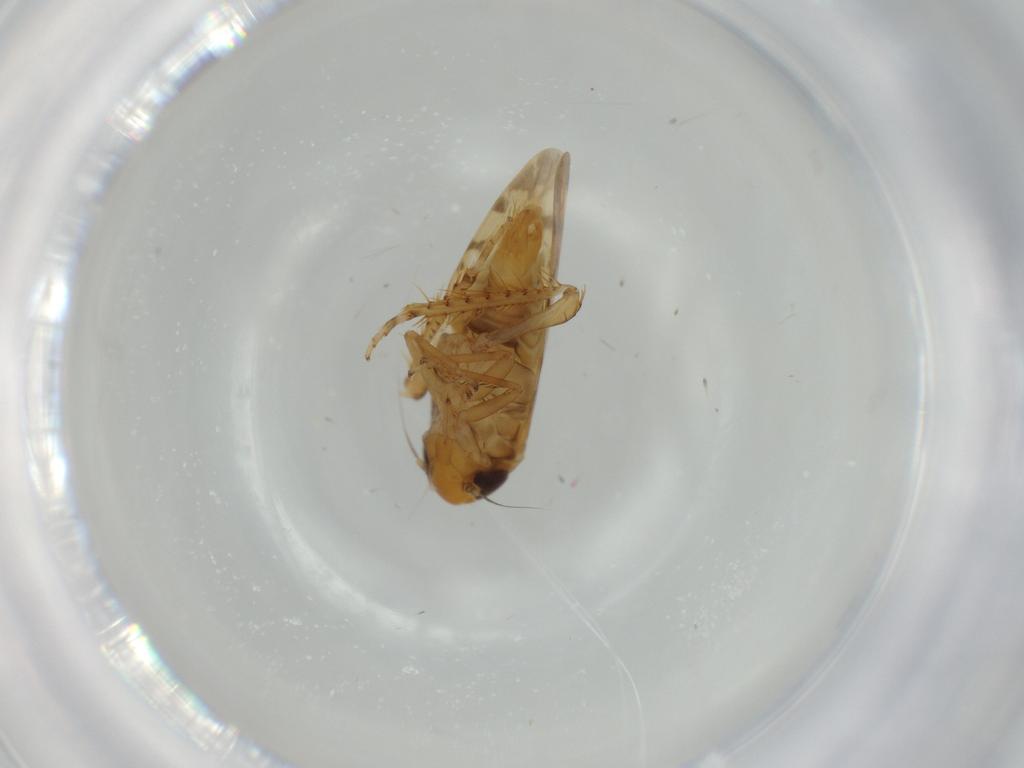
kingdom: Animalia
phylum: Arthropoda
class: Insecta
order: Hemiptera
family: Cicadellidae
